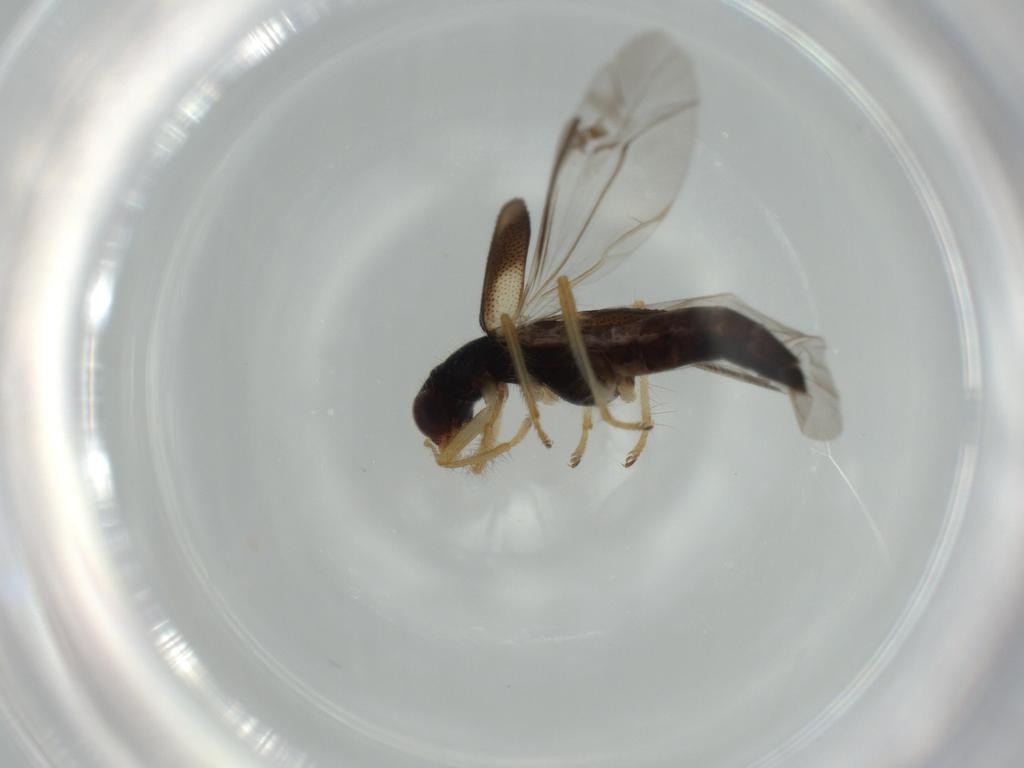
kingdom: Animalia
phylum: Arthropoda
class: Insecta
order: Coleoptera
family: Cleridae
